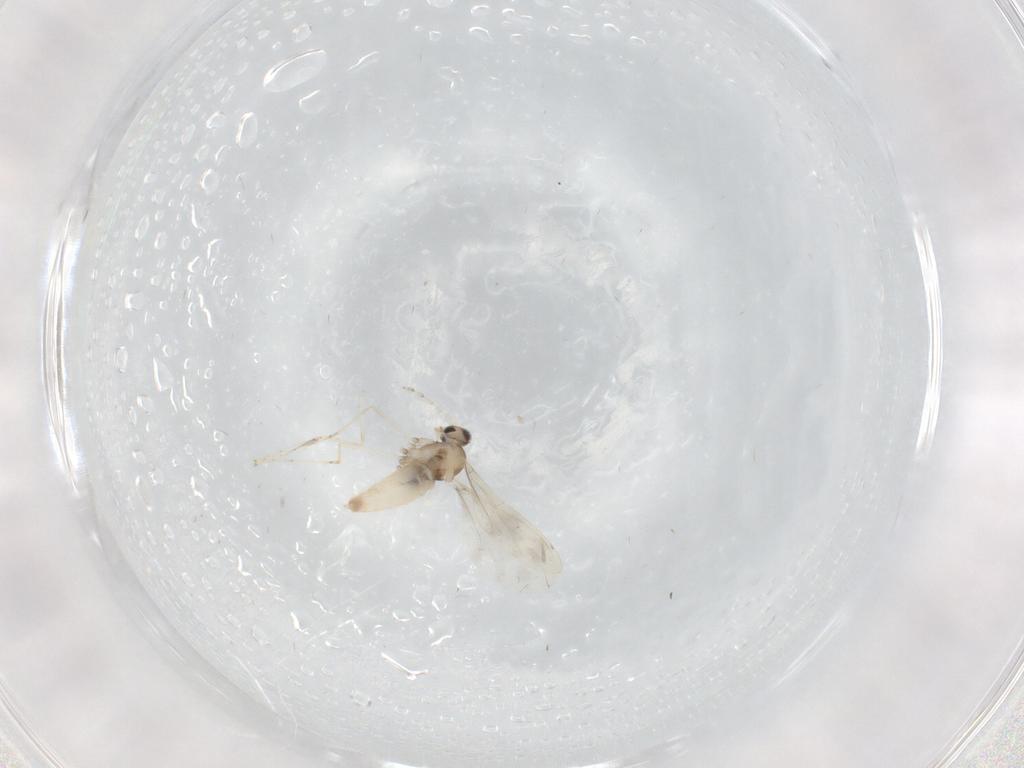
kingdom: Animalia
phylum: Arthropoda
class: Insecta
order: Diptera
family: Cecidomyiidae
